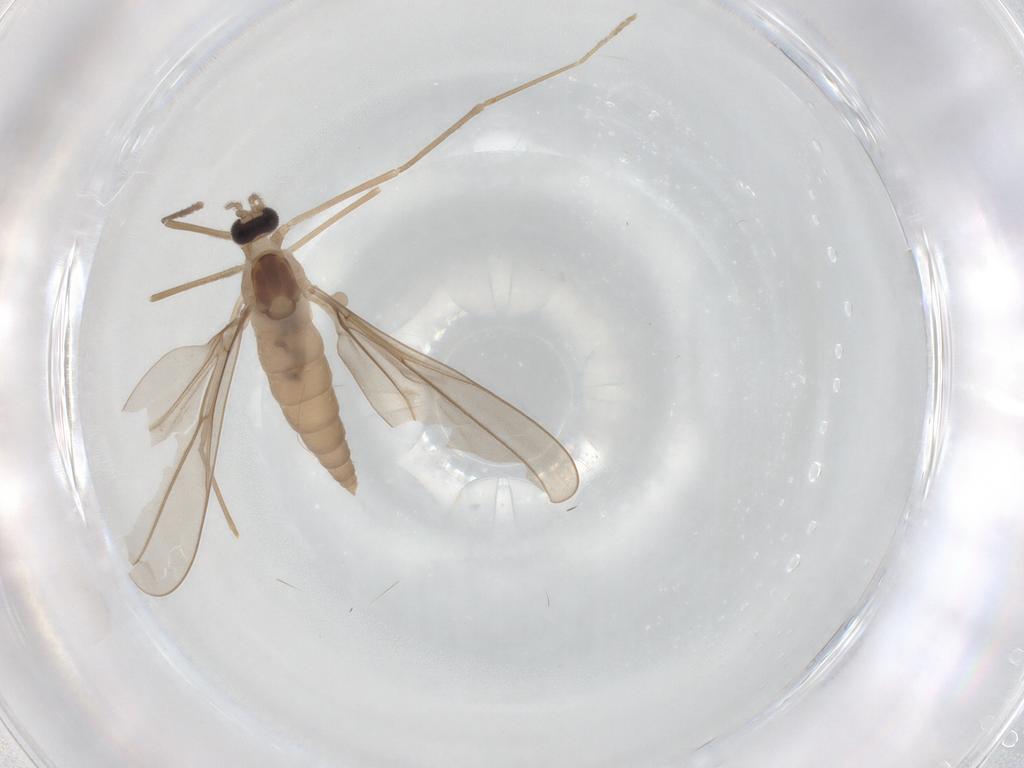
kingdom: Animalia
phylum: Arthropoda
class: Insecta
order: Diptera
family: Cecidomyiidae
